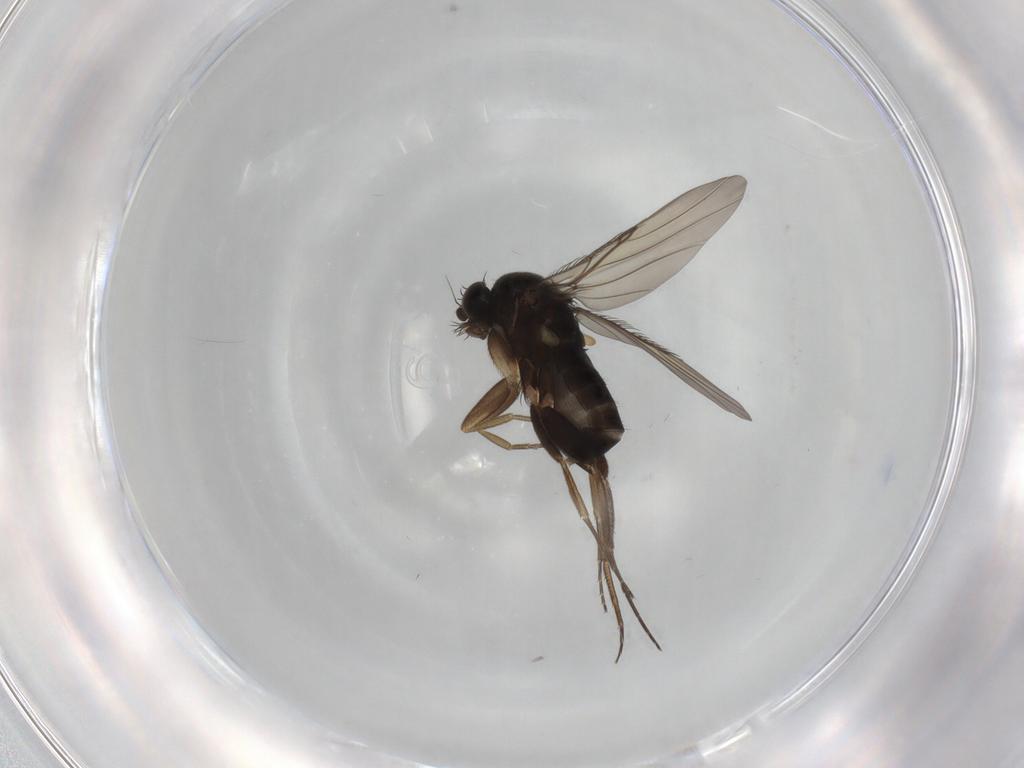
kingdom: Animalia
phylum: Arthropoda
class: Insecta
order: Diptera
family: Phoridae
